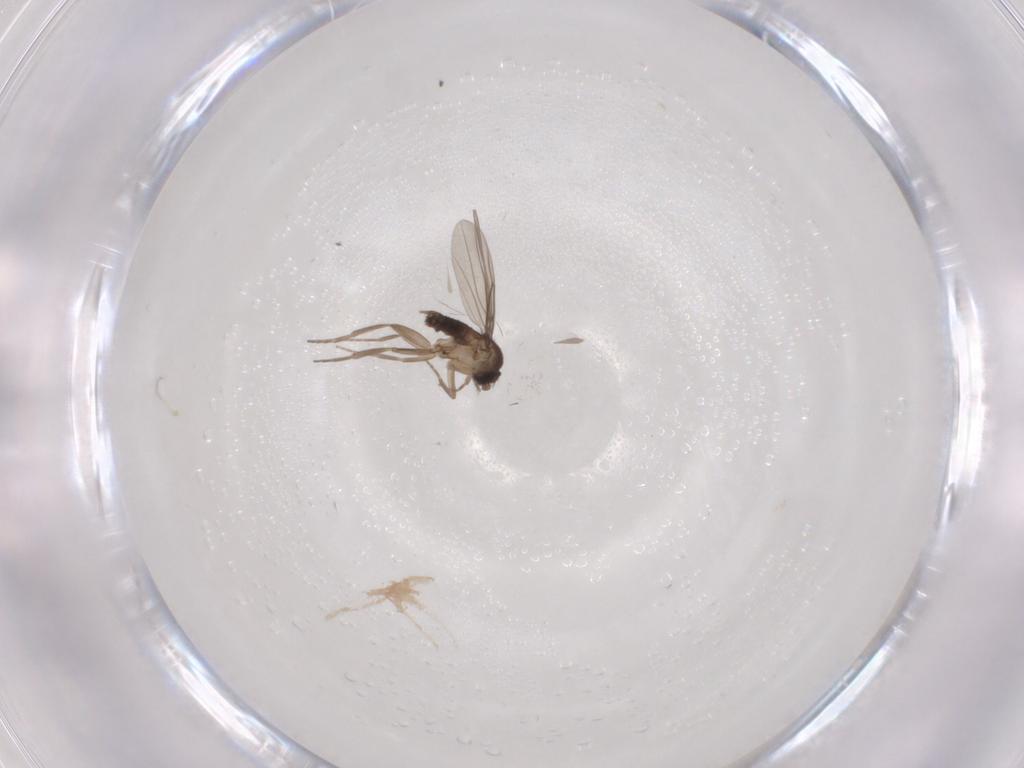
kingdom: Animalia
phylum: Arthropoda
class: Insecta
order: Diptera
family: Phoridae
